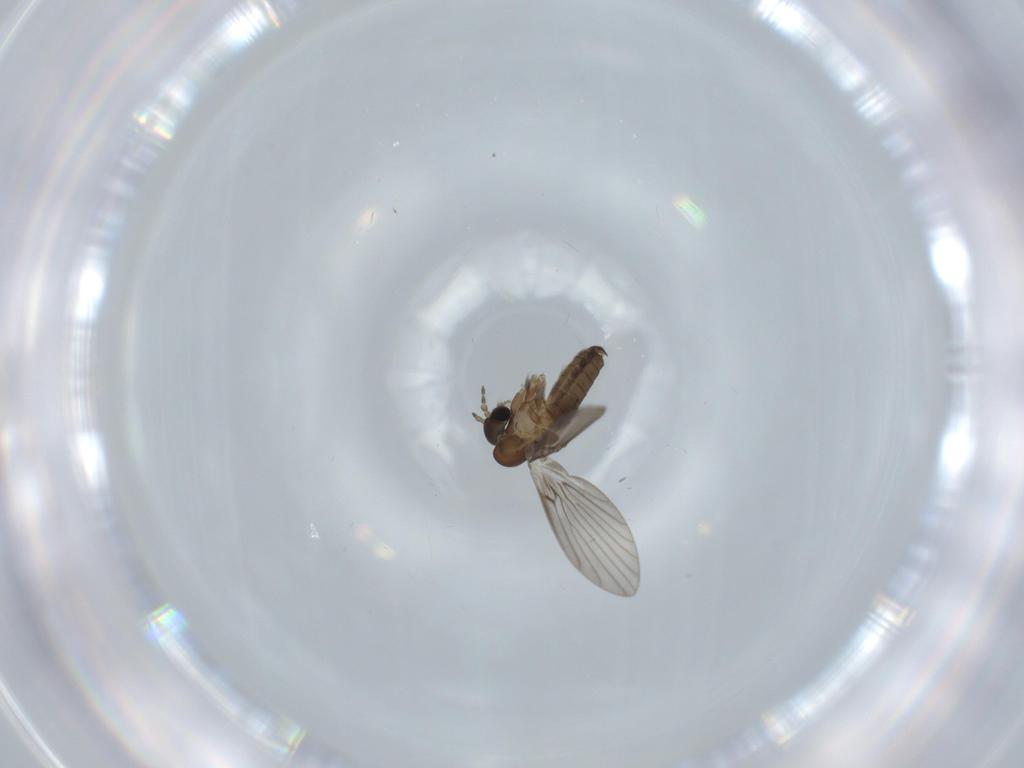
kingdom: Animalia
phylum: Arthropoda
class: Insecta
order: Diptera
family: Psychodidae
